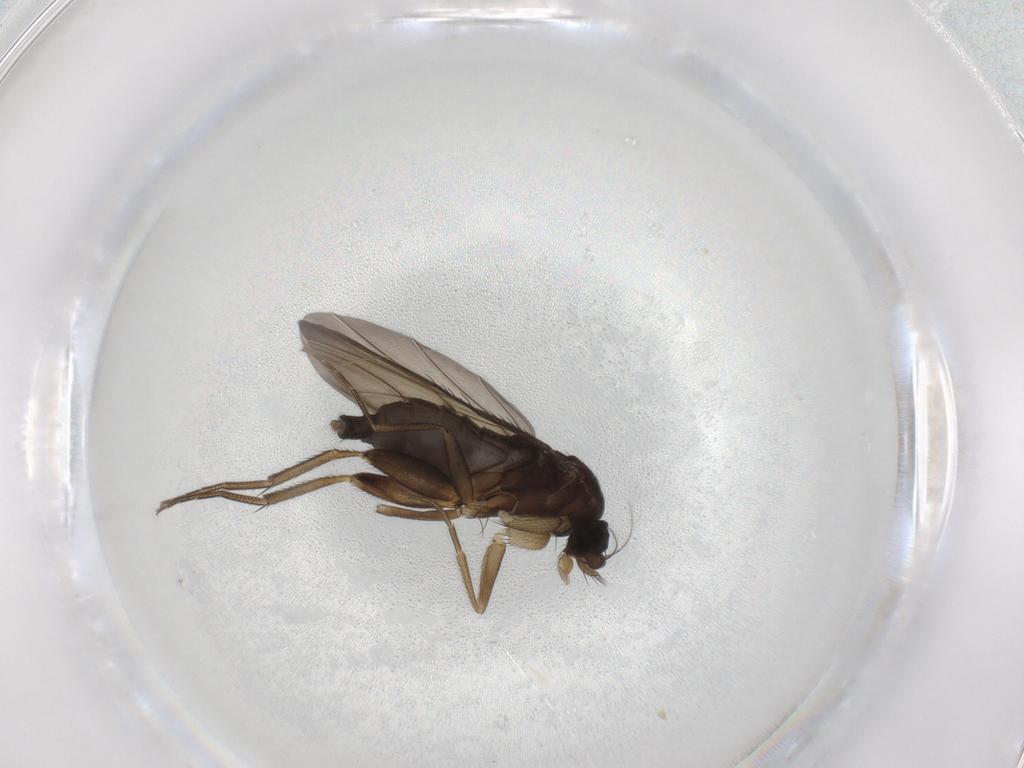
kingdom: Animalia
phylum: Arthropoda
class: Insecta
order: Diptera
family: Phoridae
